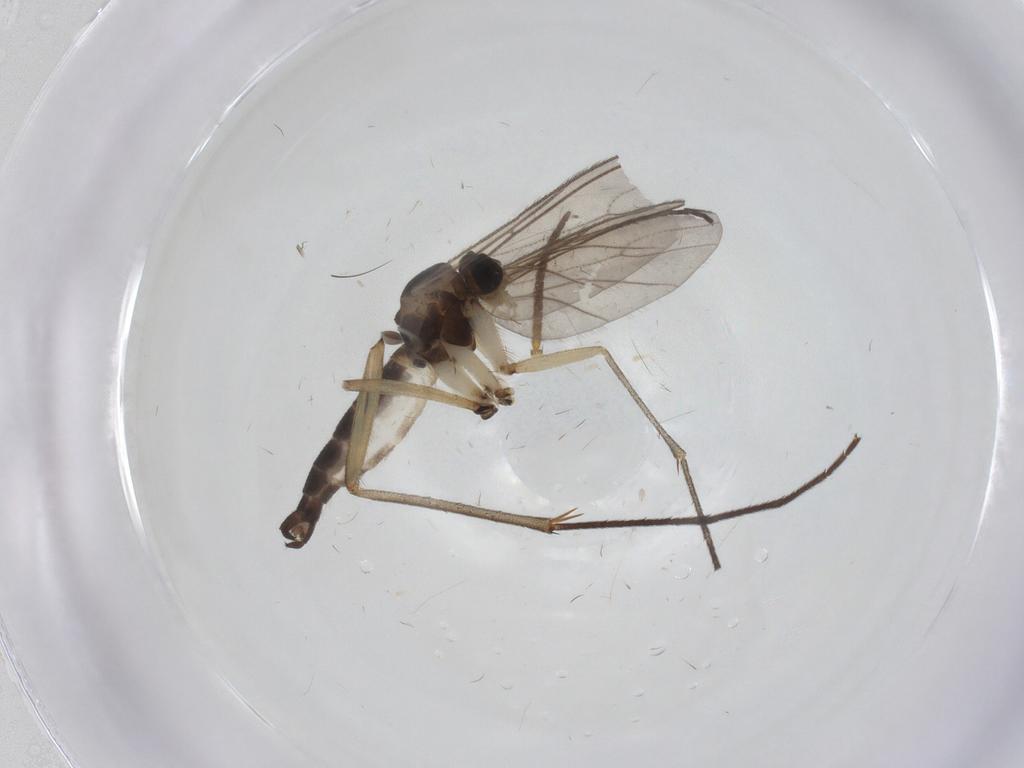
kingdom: Animalia
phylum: Arthropoda
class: Insecta
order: Diptera
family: Mycetophilidae
